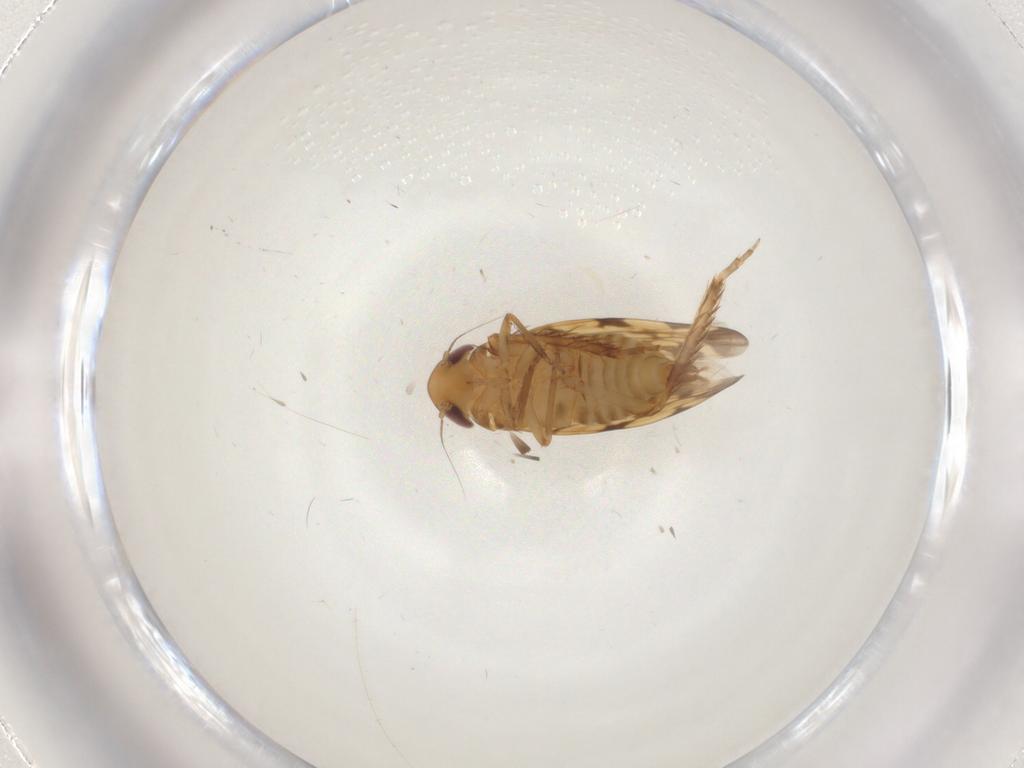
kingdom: Animalia
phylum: Arthropoda
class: Insecta
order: Hemiptera
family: Cicadellidae
